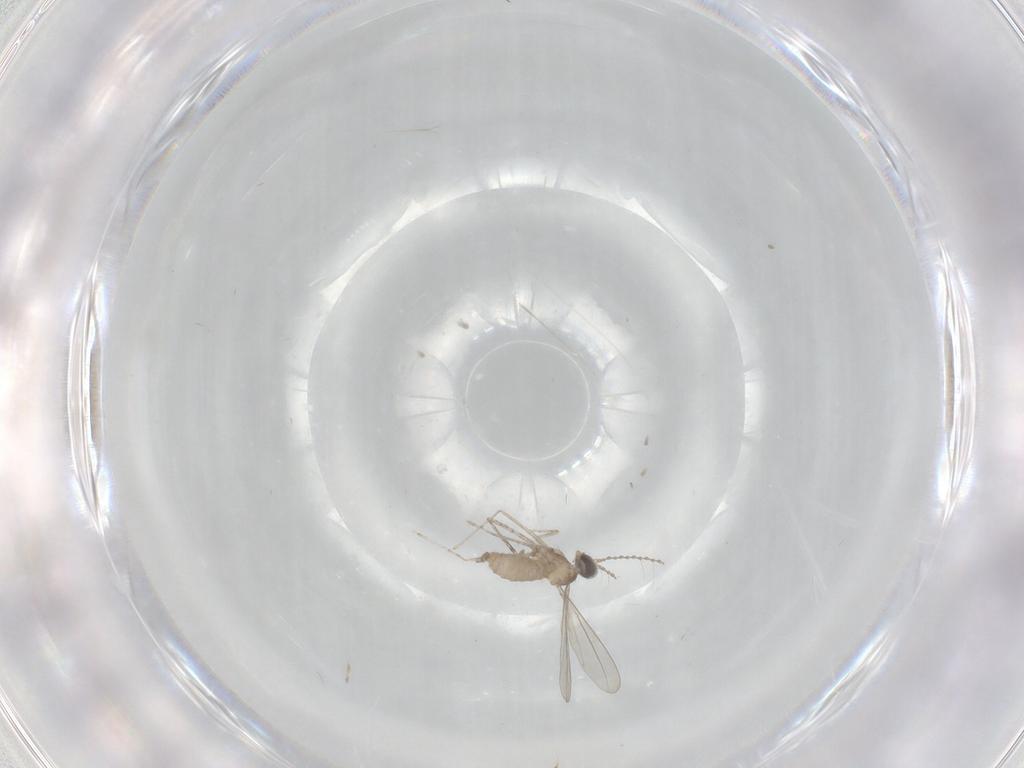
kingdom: Animalia
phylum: Arthropoda
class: Insecta
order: Diptera
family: Cecidomyiidae
